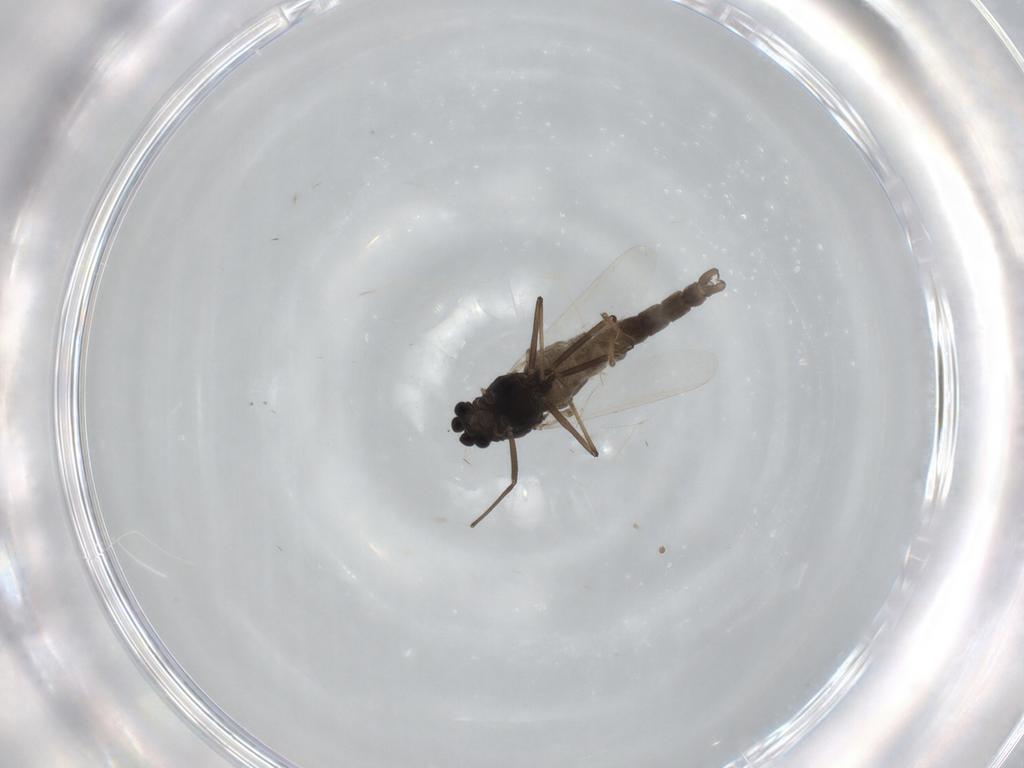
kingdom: Animalia
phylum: Arthropoda
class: Insecta
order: Diptera
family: Chironomidae
